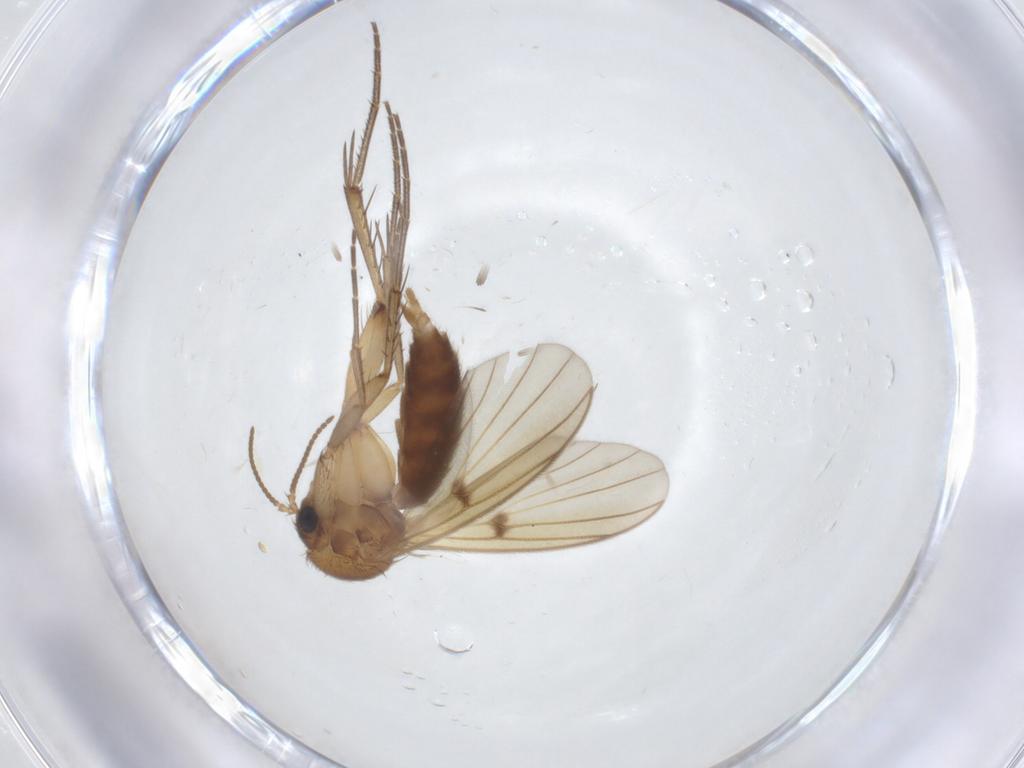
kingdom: Animalia
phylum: Arthropoda
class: Insecta
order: Diptera
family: Mycetophilidae
